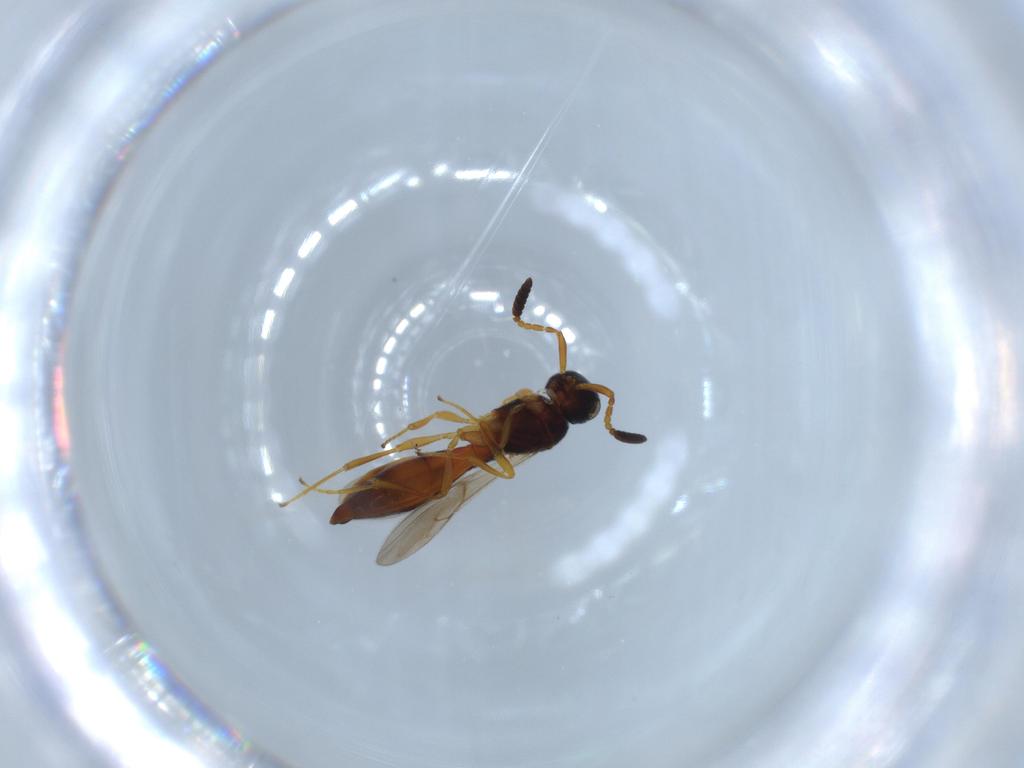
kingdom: Animalia
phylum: Arthropoda
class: Insecta
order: Hymenoptera
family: Scelionidae
